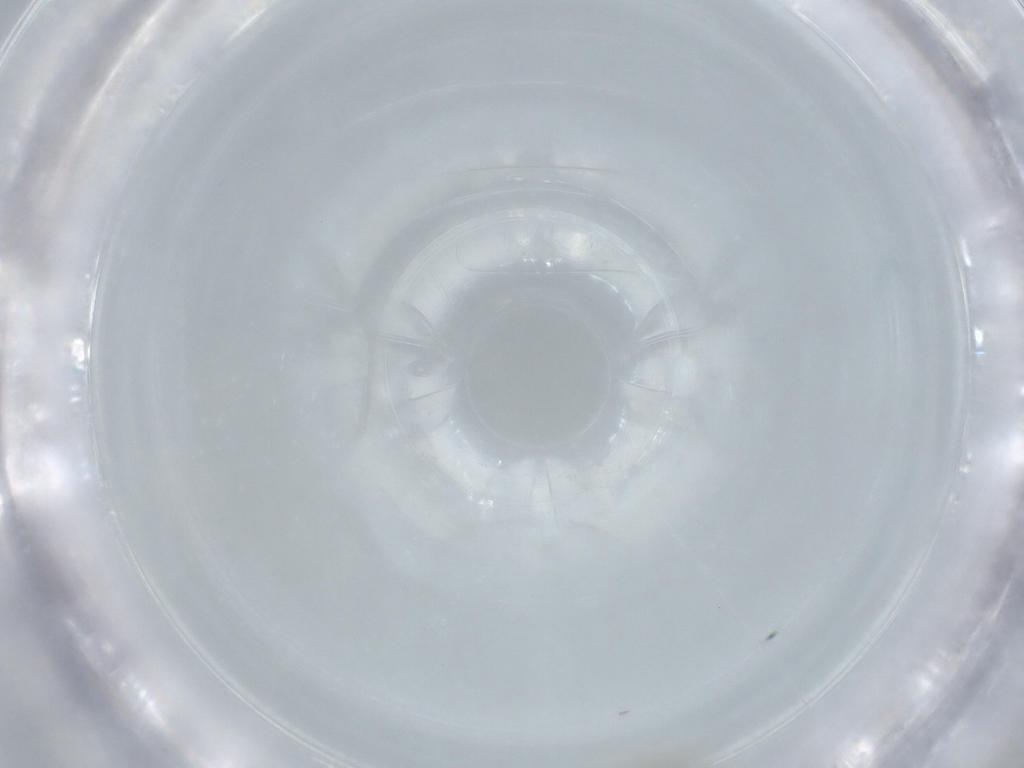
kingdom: Animalia
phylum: Arthropoda
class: Insecta
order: Diptera
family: Cecidomyiidae
